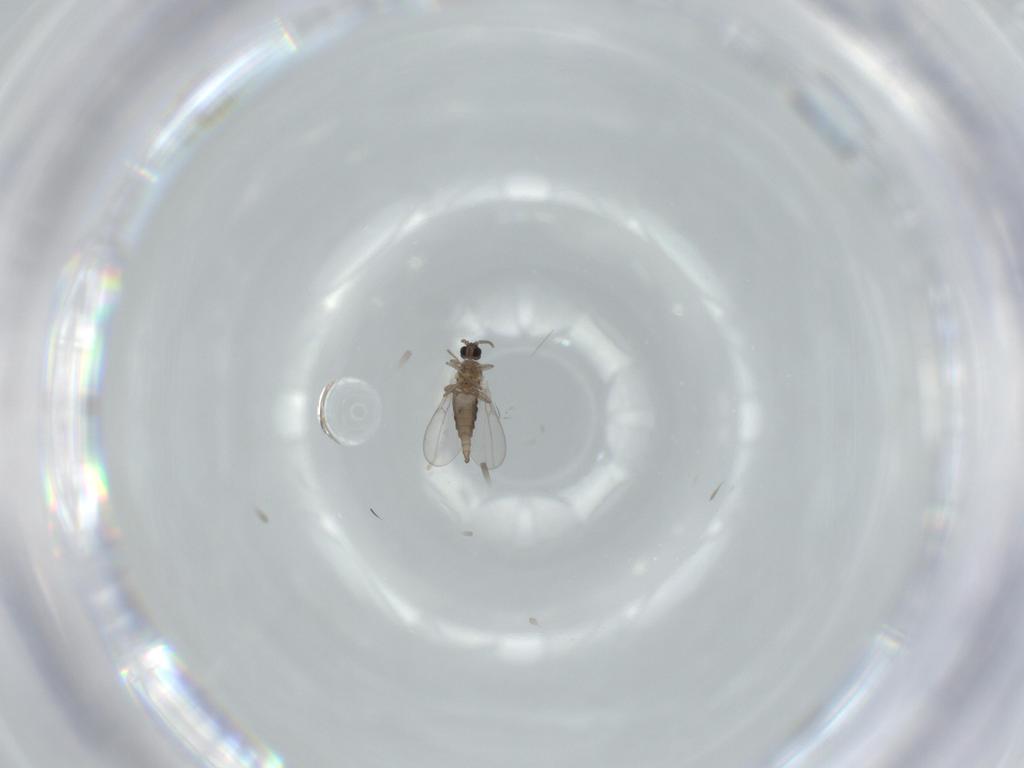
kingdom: Animalia
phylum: Arthropoda
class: Insecta
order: Diptera
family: Cecidomyiidae
